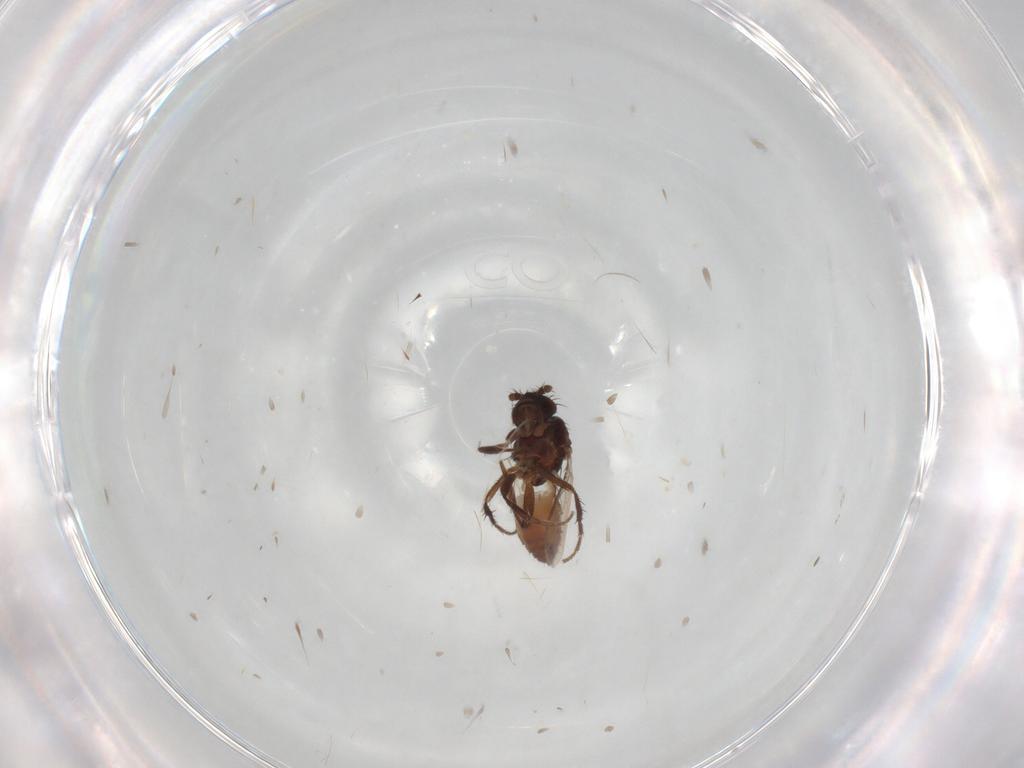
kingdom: Animalia
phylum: Arthropoda
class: Insecta
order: Diptera
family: Sphaeroceridae
